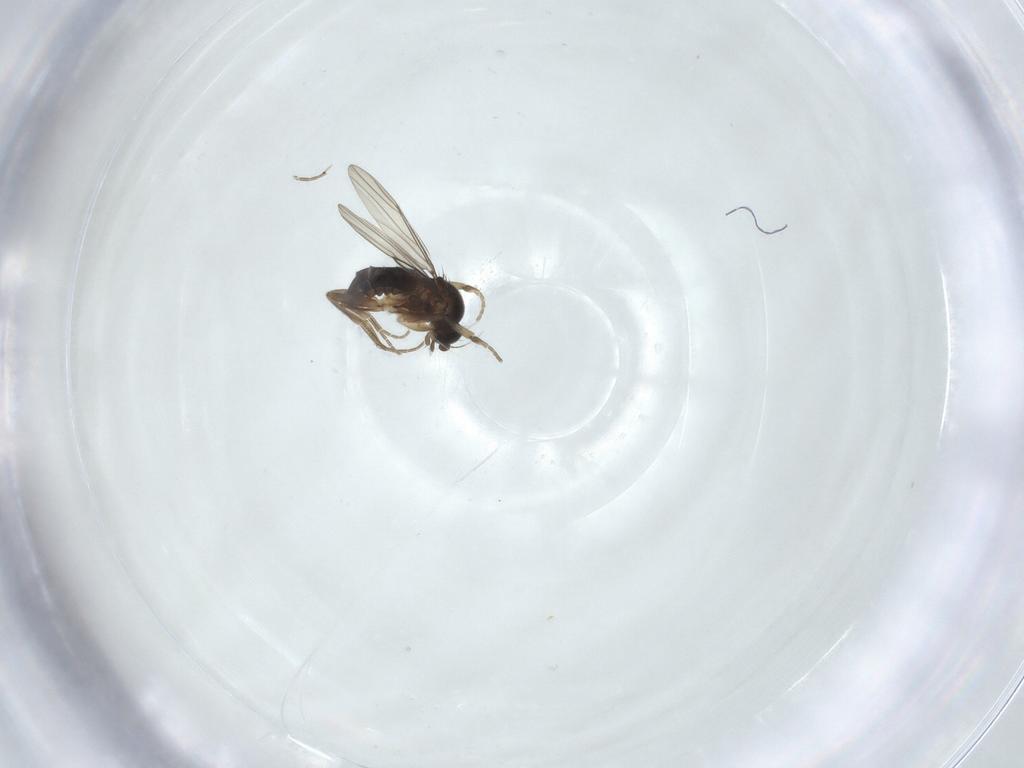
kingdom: Animalia
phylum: Arthropoda
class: Insecta
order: Diptera
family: Phoridae
